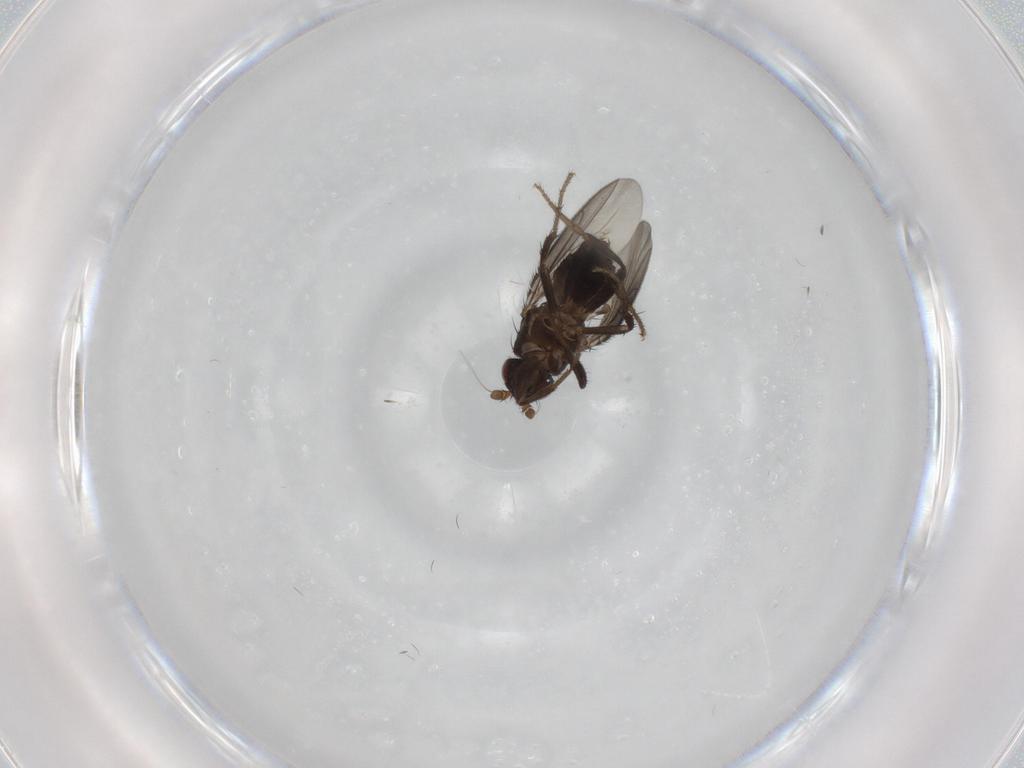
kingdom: Animalia
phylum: Arthropoda
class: Insecta
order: Diptera
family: Sphaeroceridae
